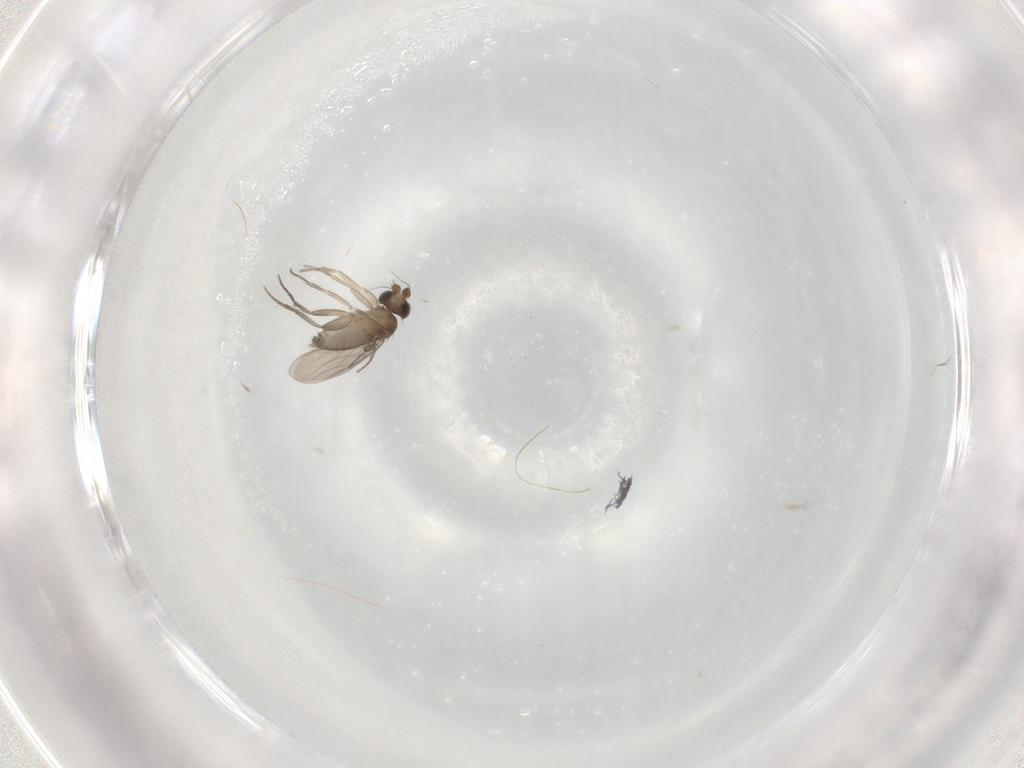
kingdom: Animalia
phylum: Arthropoda
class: Insecta
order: Diptera
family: Phoridae
